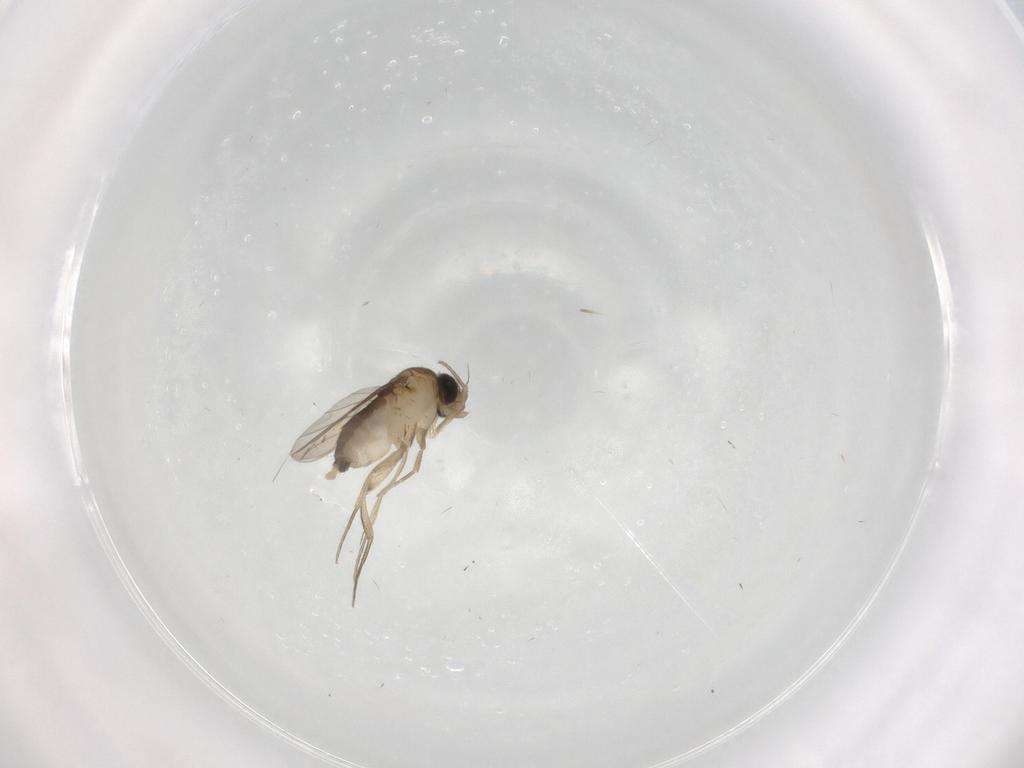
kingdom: Animalia
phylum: Arthropoda
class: Insecta
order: Diptera
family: Phoridae
